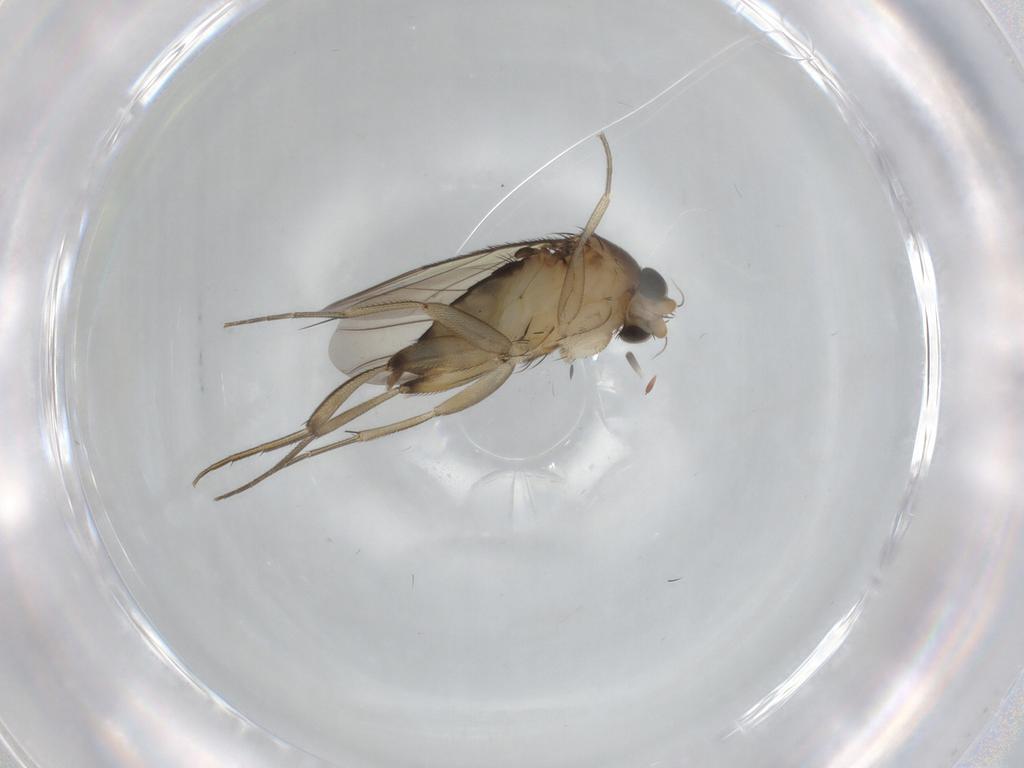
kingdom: Animalia
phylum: Arthropoda
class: Insecta
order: Diptera
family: Phoridae
